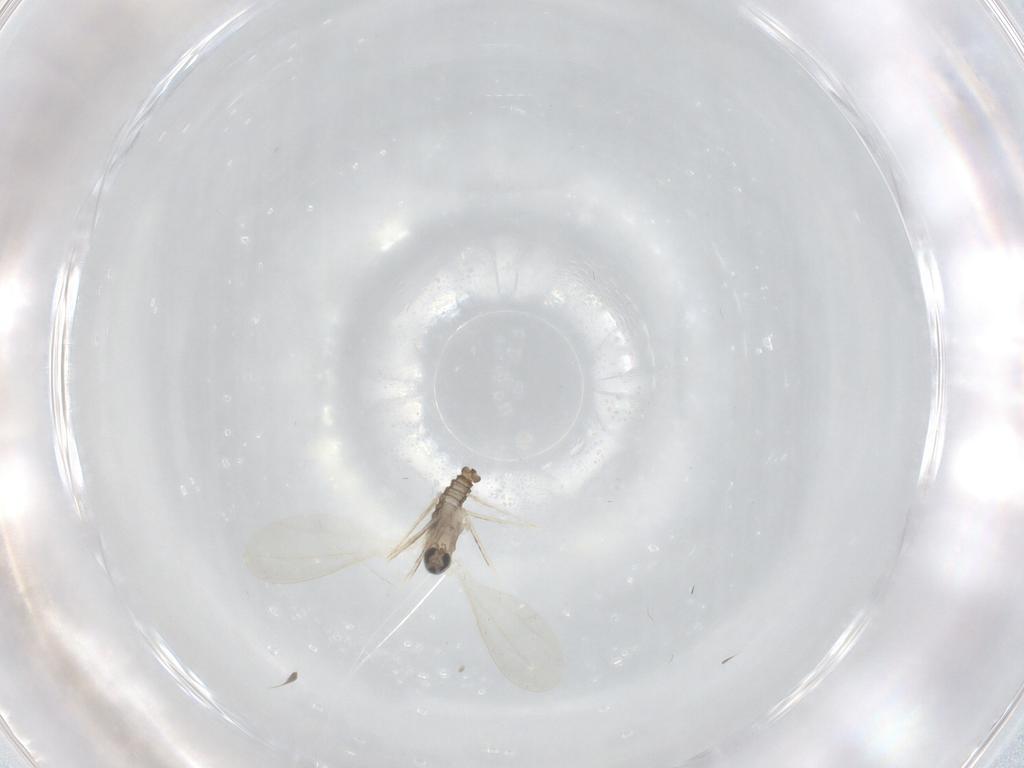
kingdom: Animalia
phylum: Arthropoda
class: Insecta
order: Diptera
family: Cecidomyiidae
